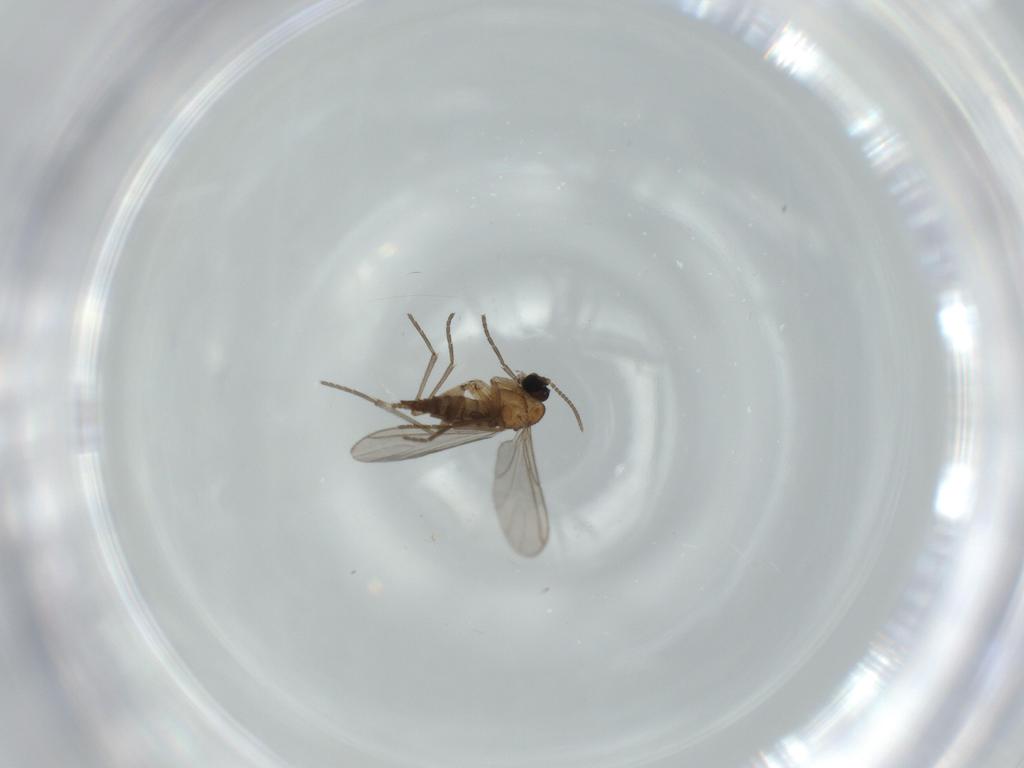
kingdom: Animalia
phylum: Arthropoda
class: Insecta
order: Diptera
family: Sciaridae
